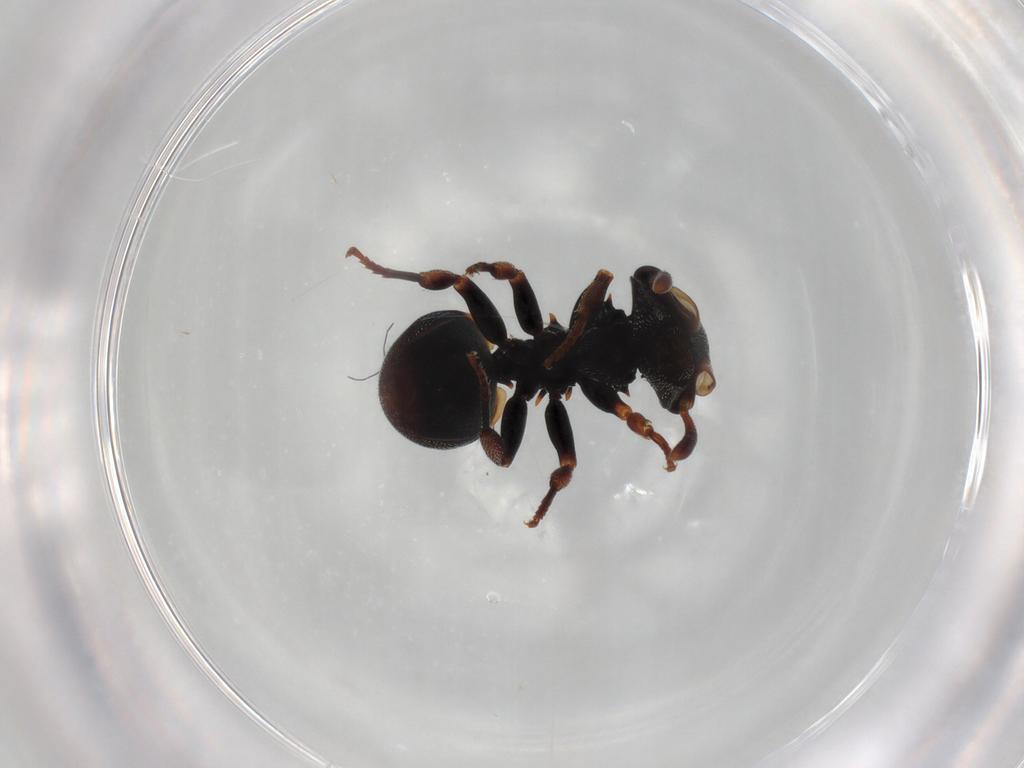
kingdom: Animalia
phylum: Arthropoda
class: Insecta
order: Hymenoptera
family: Formicidae
